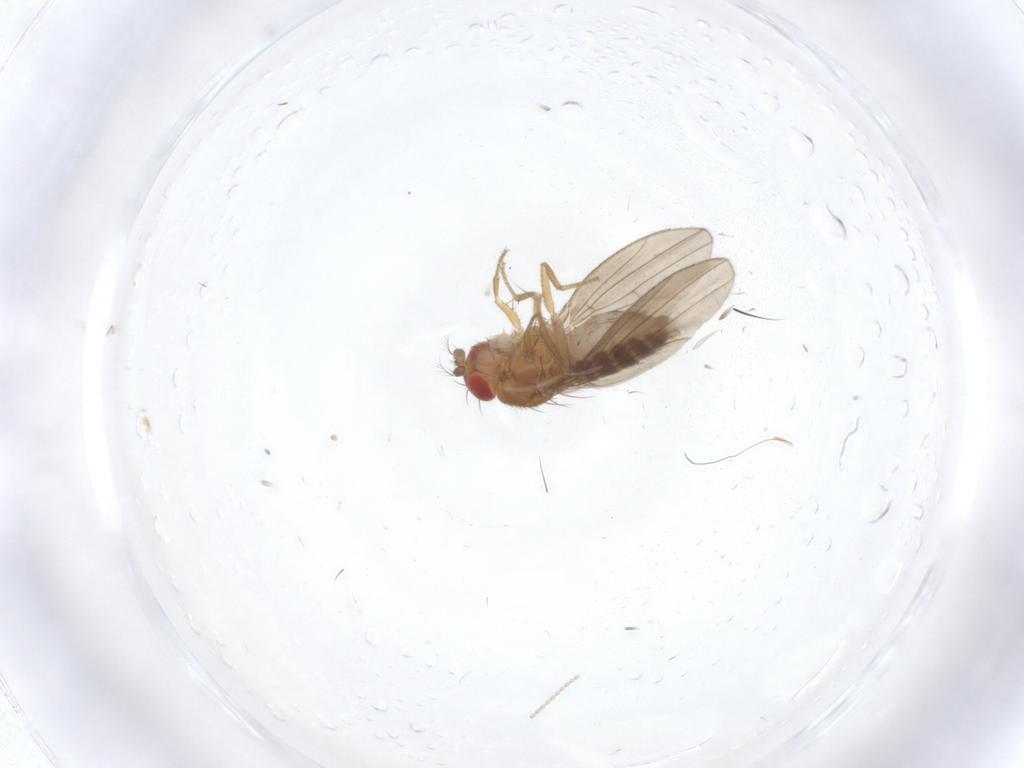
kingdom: Animalia
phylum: Arthropoda
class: Insecta
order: Diptera
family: Drosophilidae
